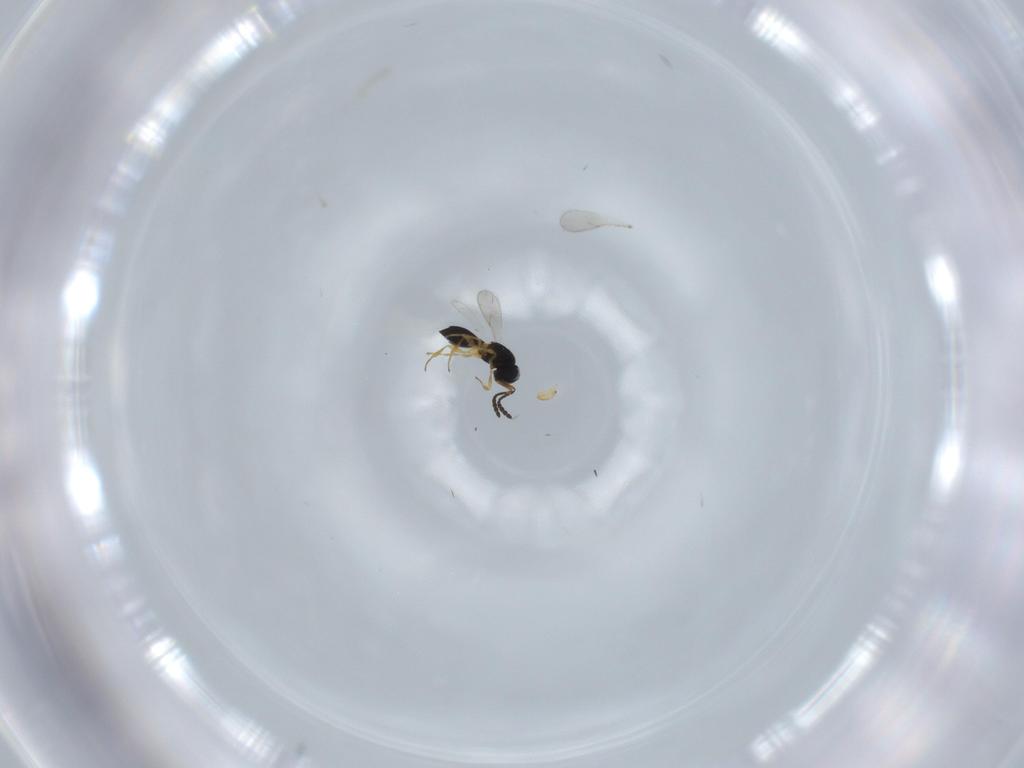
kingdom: Animalia
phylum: Arthropoda
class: Insecta
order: Hymenoptera
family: Scelionidae
